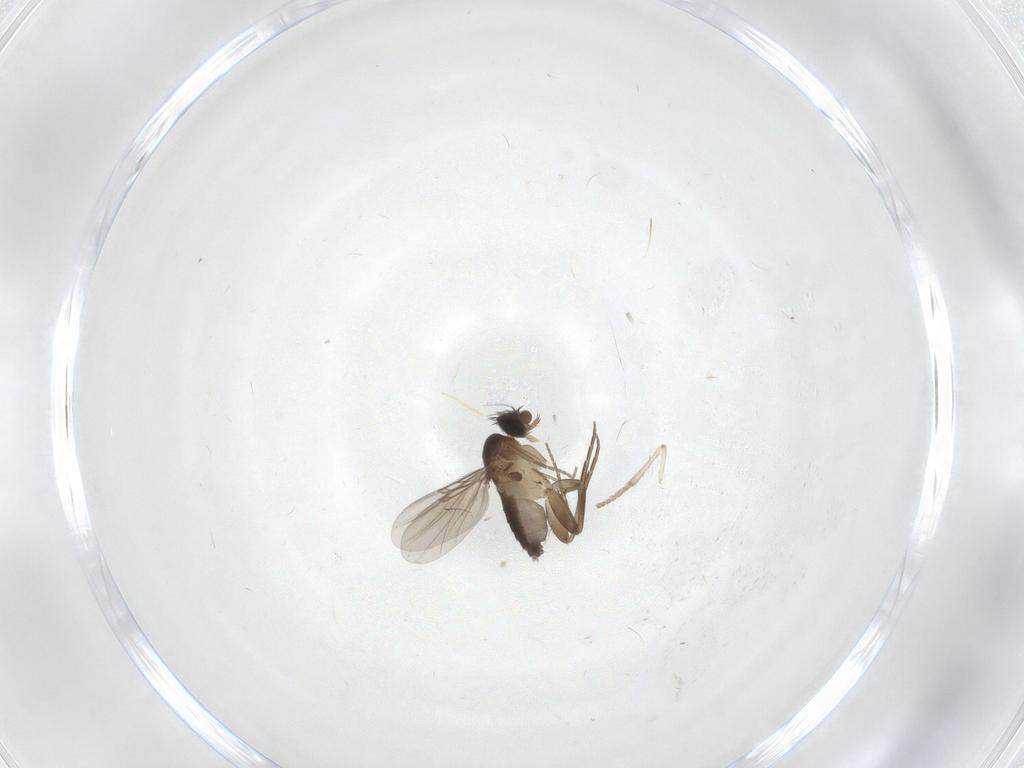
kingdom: Animalia
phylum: Arthropoda
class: Insecta
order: Diptera
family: Phoridae
